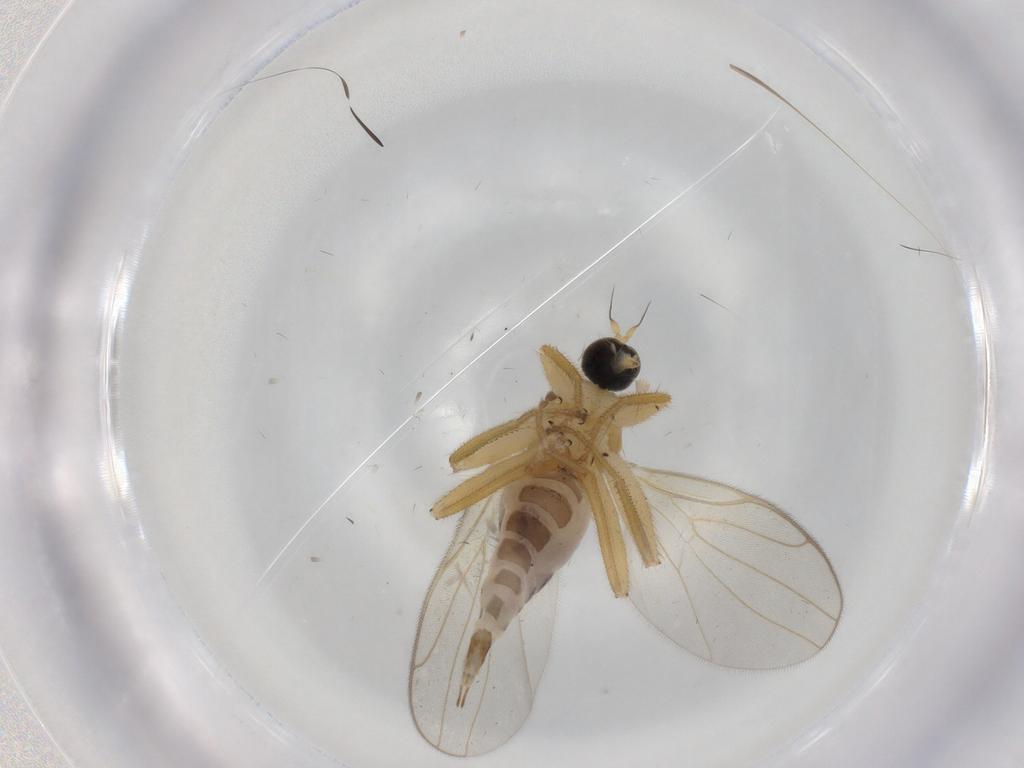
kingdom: Animalia
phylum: Arthropoda
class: Insecta
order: Diptera
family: Hybotidae
